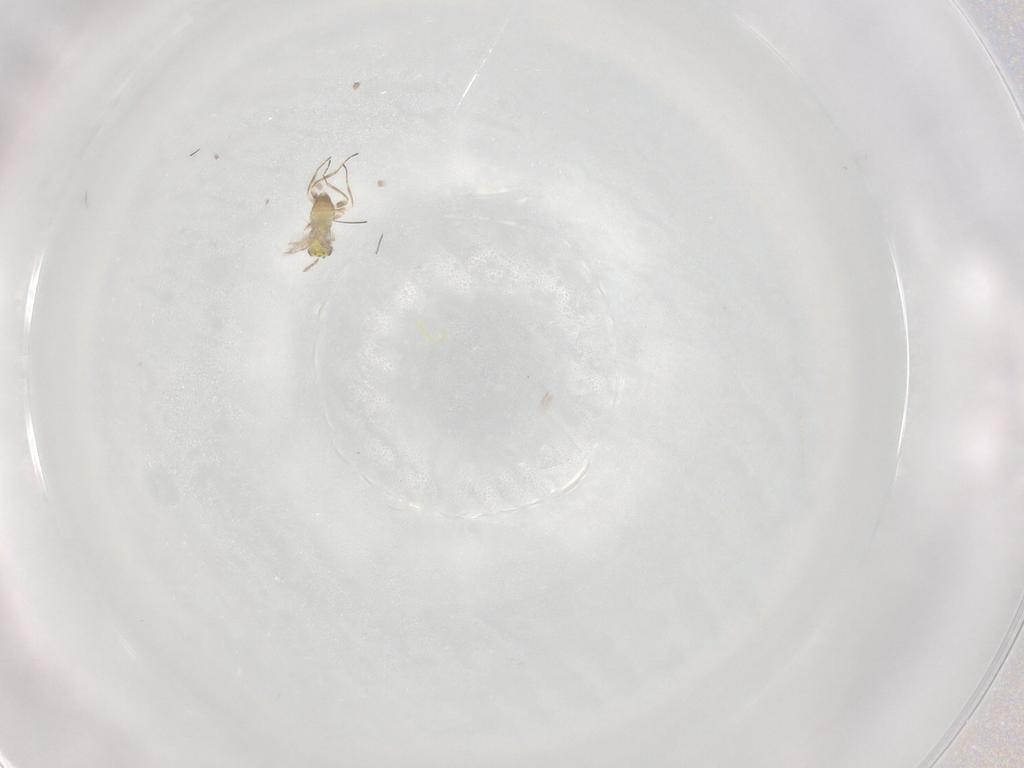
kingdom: Animalia
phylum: Arthropoda
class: Insecta
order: Hymenoptera
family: Trichogrammatidae
